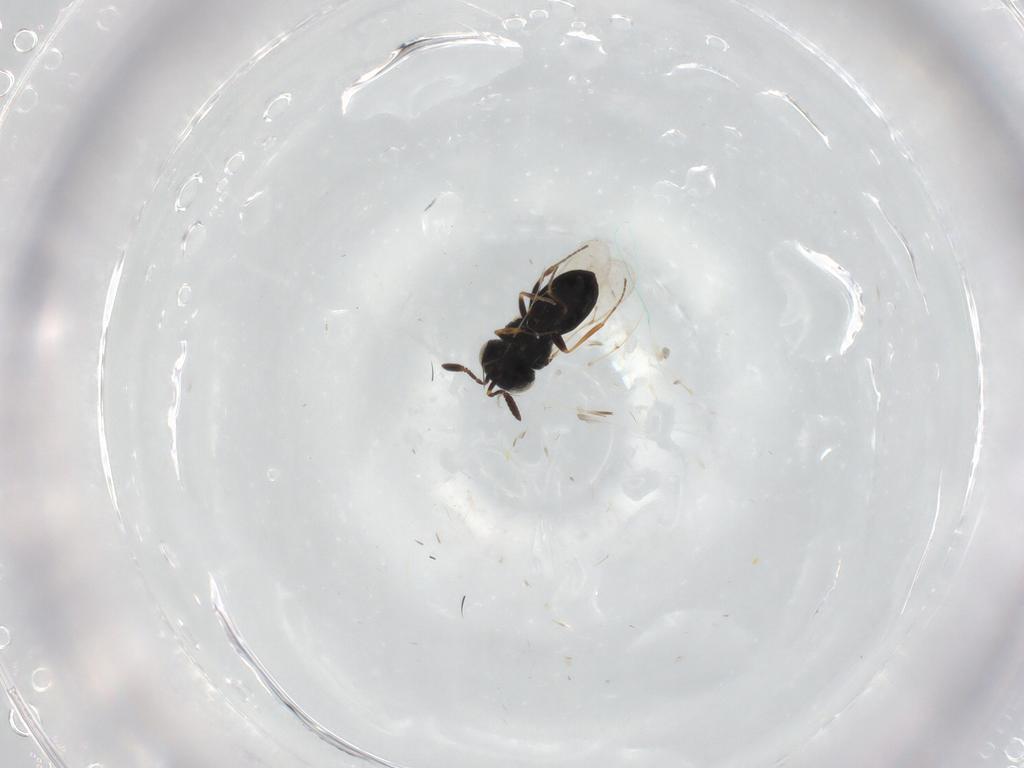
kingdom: Animalia
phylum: Arthropoda
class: Insecta
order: Hymenoptera
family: Scelionidae
